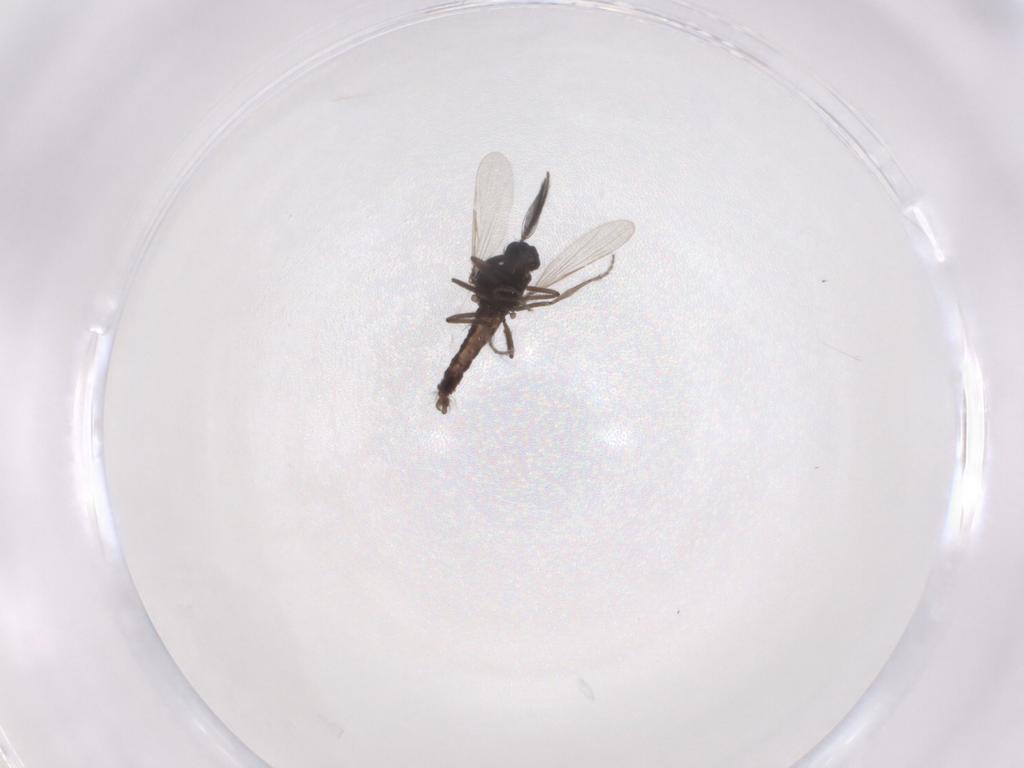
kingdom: Animalia
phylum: Arthropoda
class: Insecta
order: Diptera
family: Ceratopogonidae
